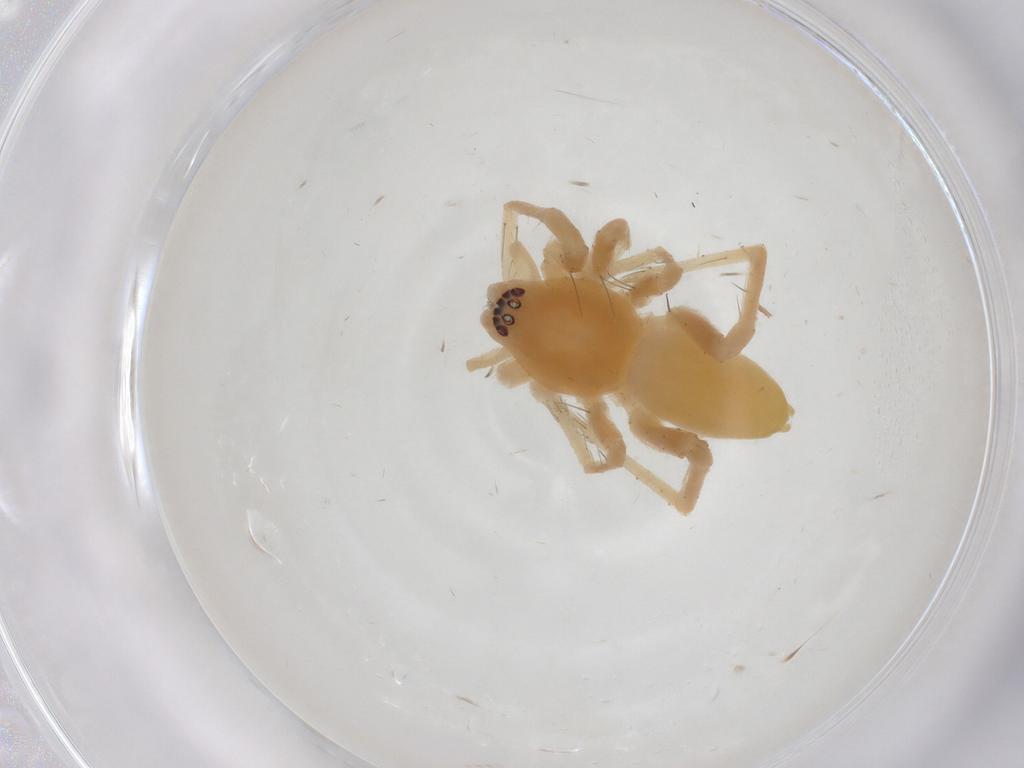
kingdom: Animalia
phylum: Arthropoda
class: Arachnida
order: Araneae
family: Anyphaenidae
